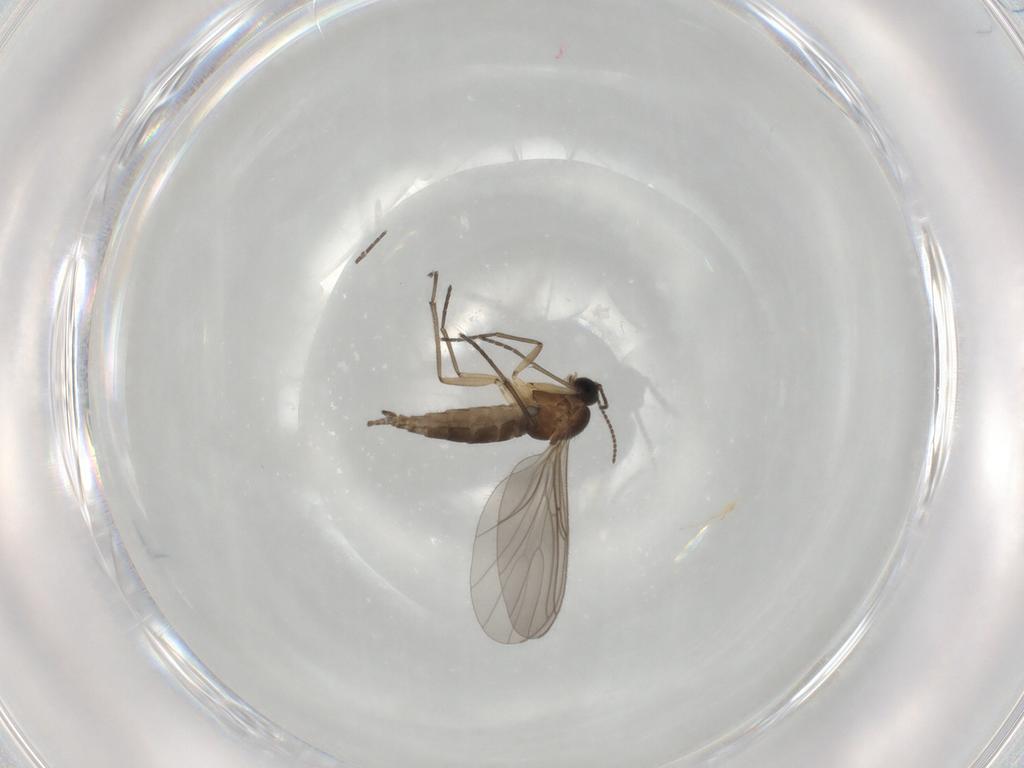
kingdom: Animalia
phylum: Arthropoda
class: Insecta
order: Diptera
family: Sciaridae
